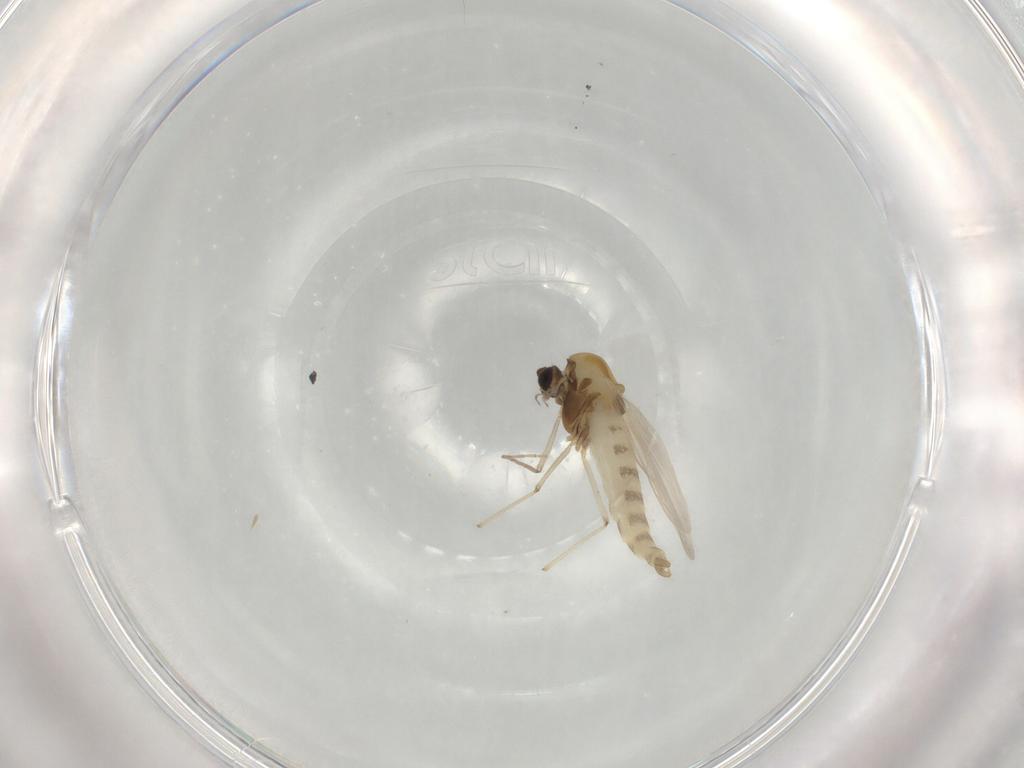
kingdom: Animalia
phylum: Arthropoda
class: Insecta
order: Diptera
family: Chironomidae
